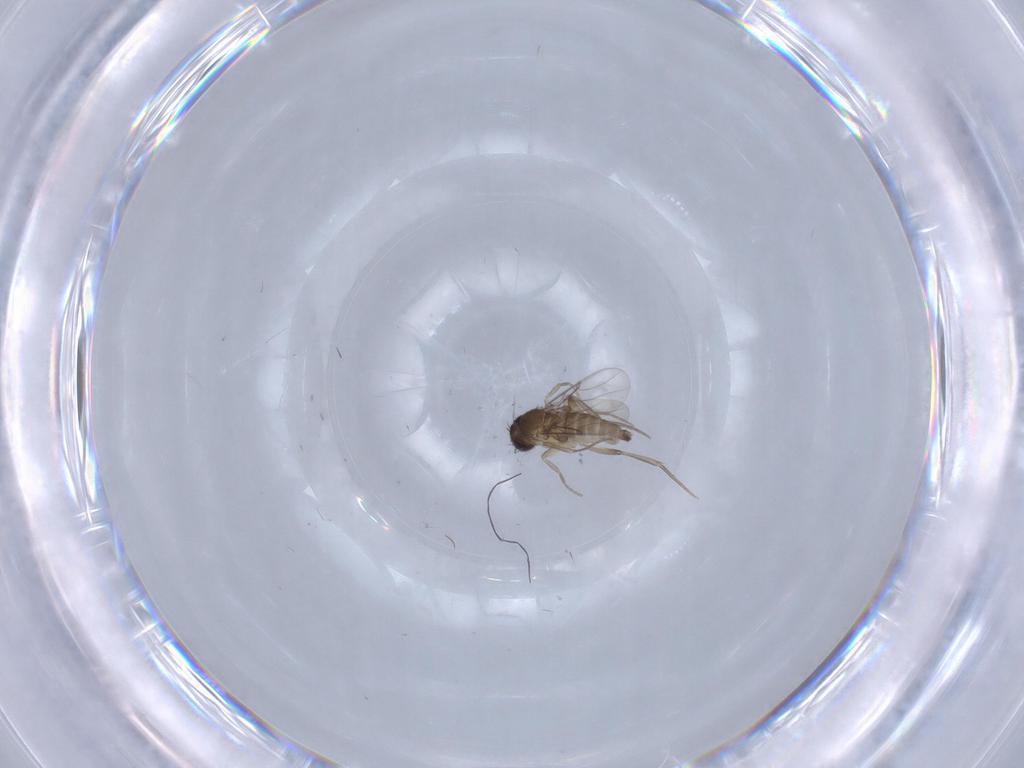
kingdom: Animalia
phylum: Arthropoda
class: Insecta
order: Diptera
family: Phoridae
